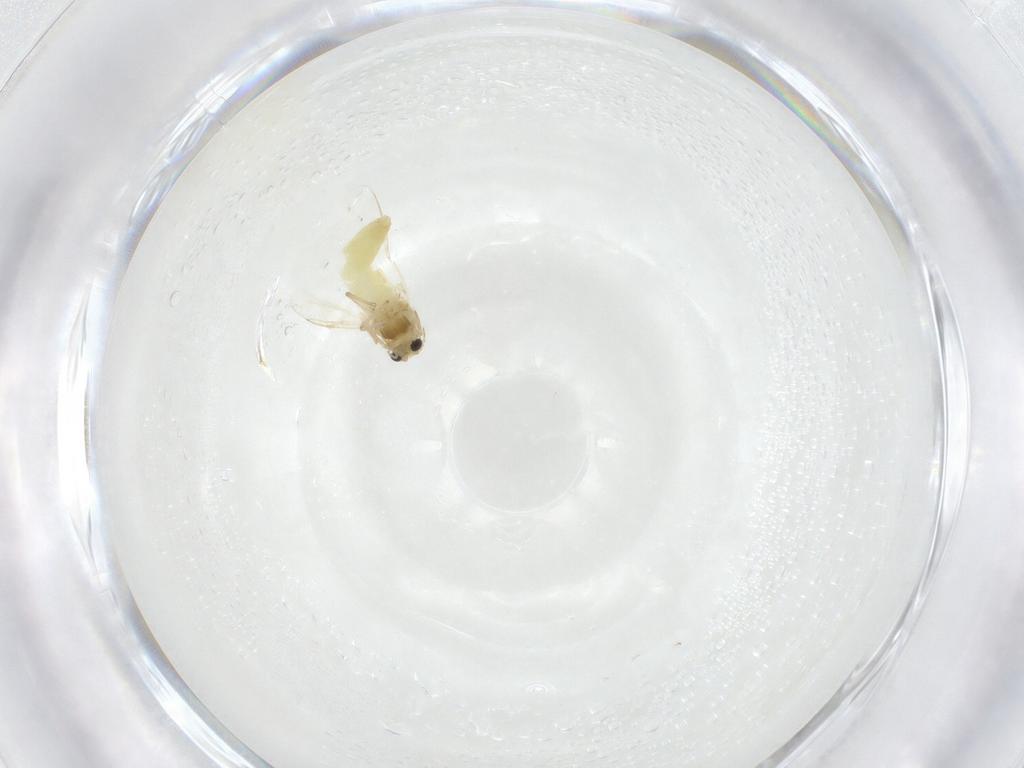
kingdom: Animalia
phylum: Arthropoda
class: Insecta
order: Diptera
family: Chironomidae
